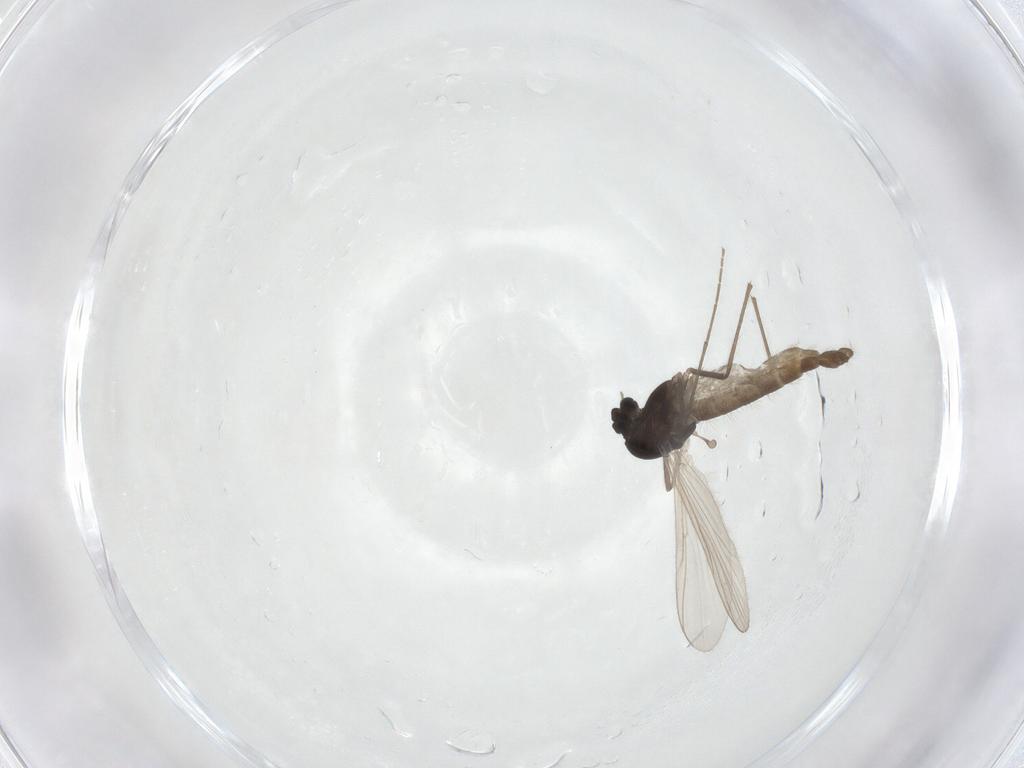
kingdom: Animalia
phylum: Arthropoda
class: Insecta
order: Diptera
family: Chironomidae
